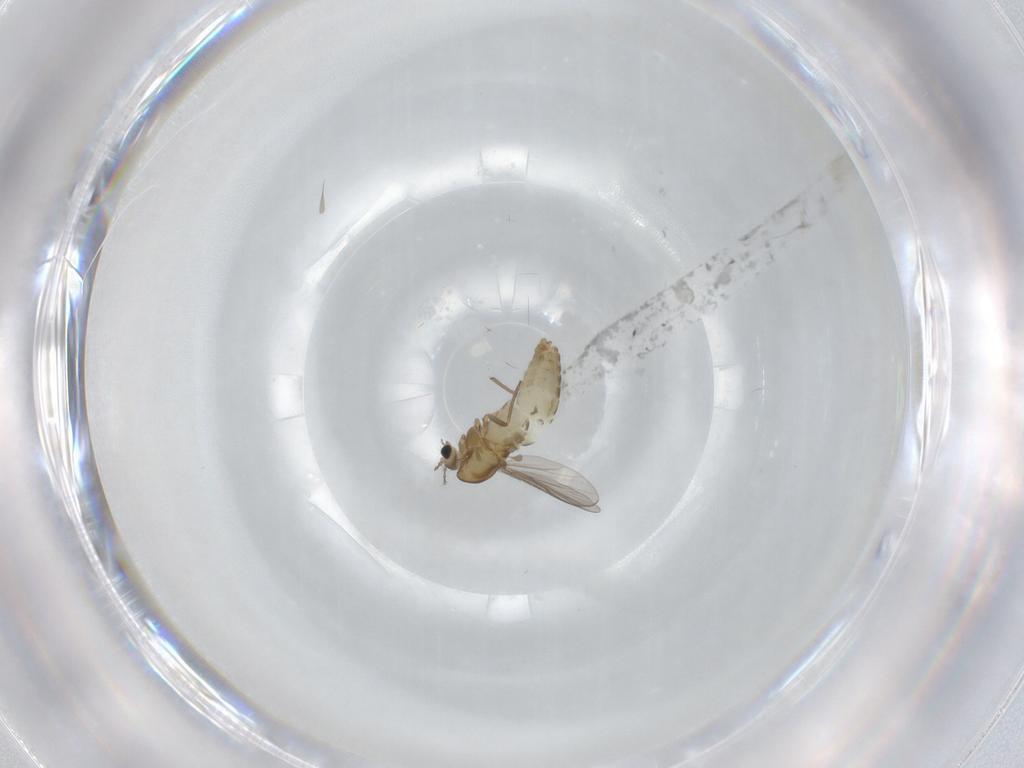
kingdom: Animalia
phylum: Arthropoda
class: Insecta
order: Diptera
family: Chironomidae
